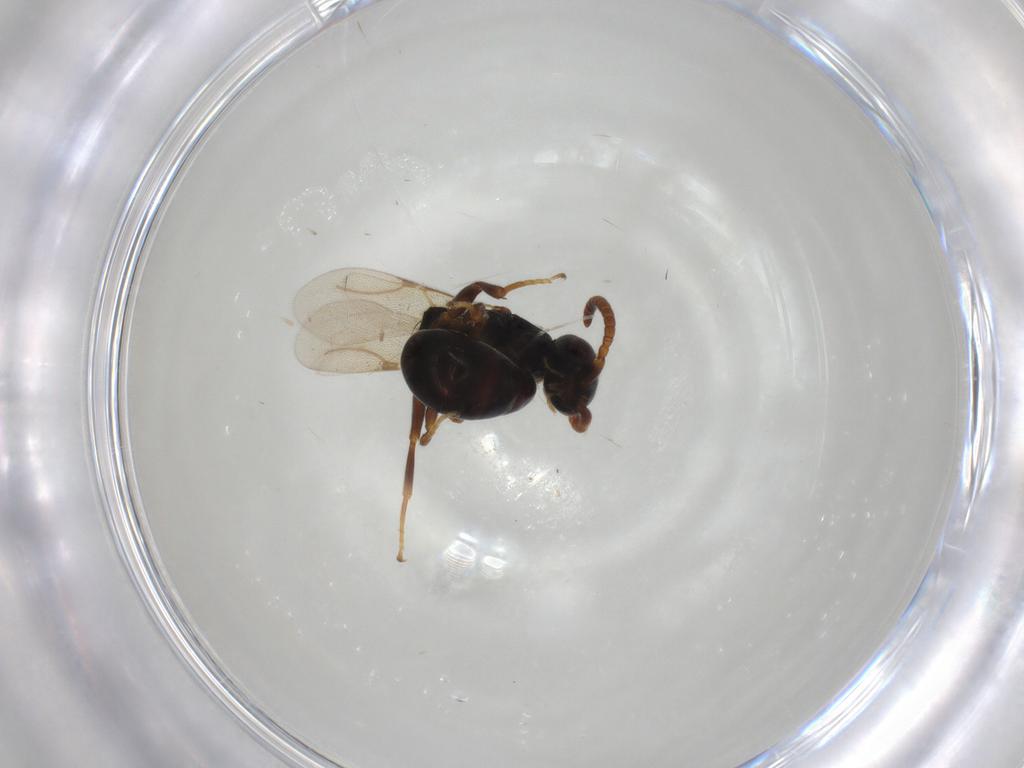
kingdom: Animalia
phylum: Arthropoda
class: Insecta
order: Hymenoptera
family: Bethylidae
